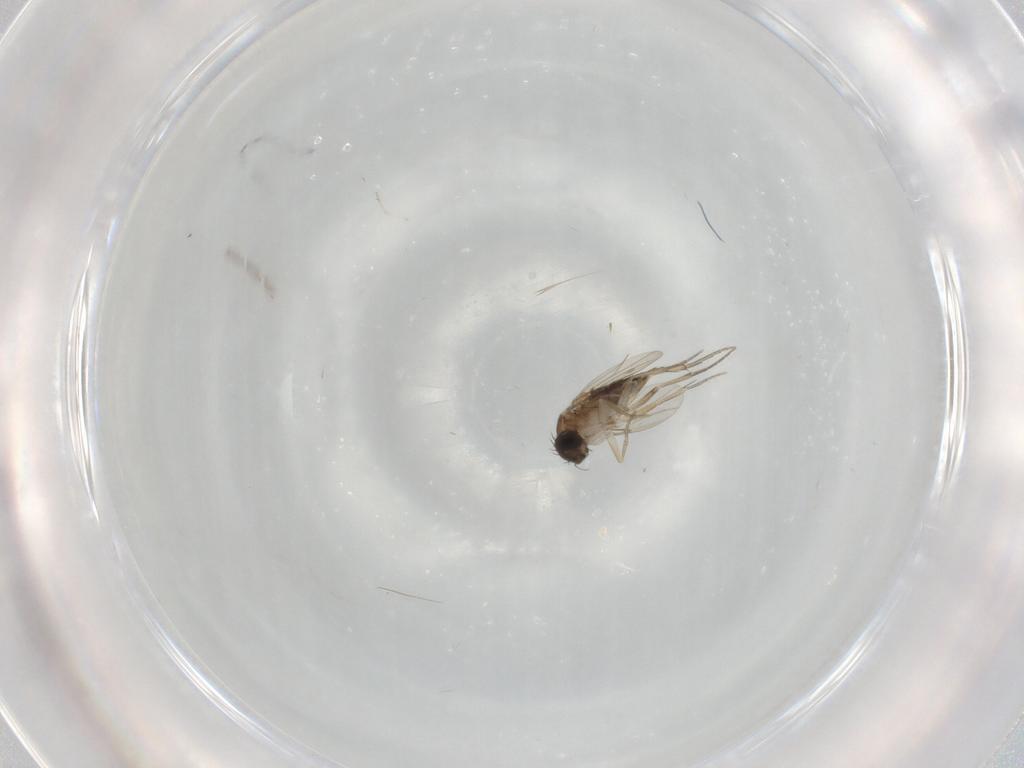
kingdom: Animalia
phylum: Arthropoda
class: Insecta
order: Diptera
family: Phoridae
